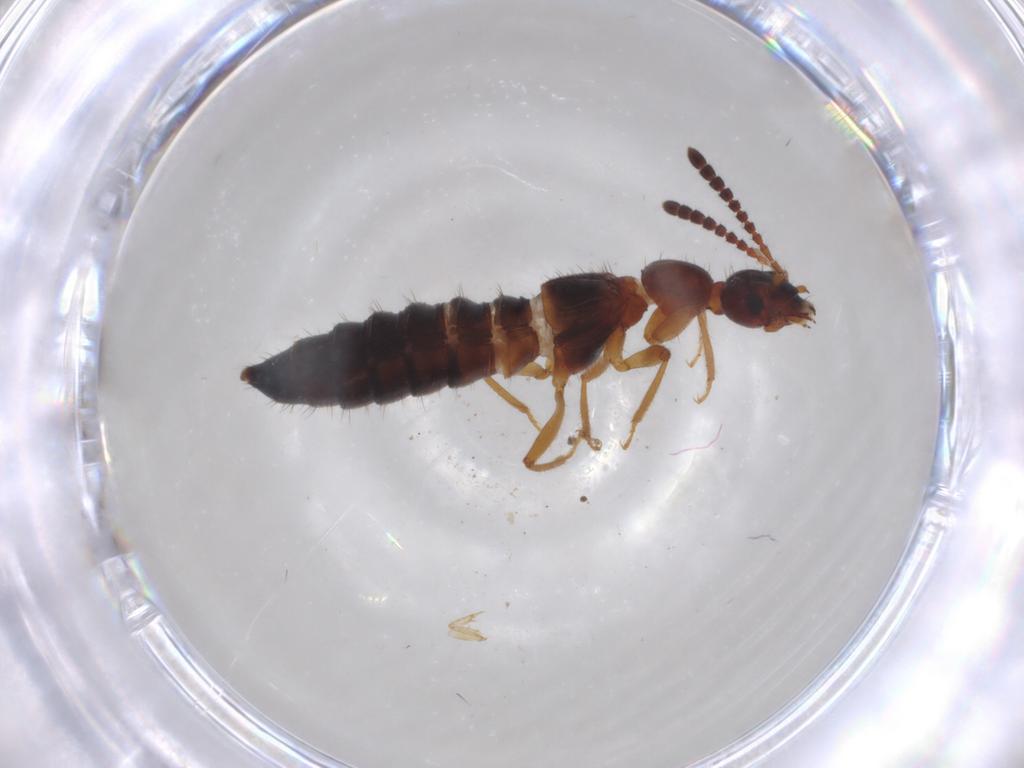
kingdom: Animalia
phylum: Arthropoda
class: Insecta
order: Coleoptera
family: Staphylinidae
